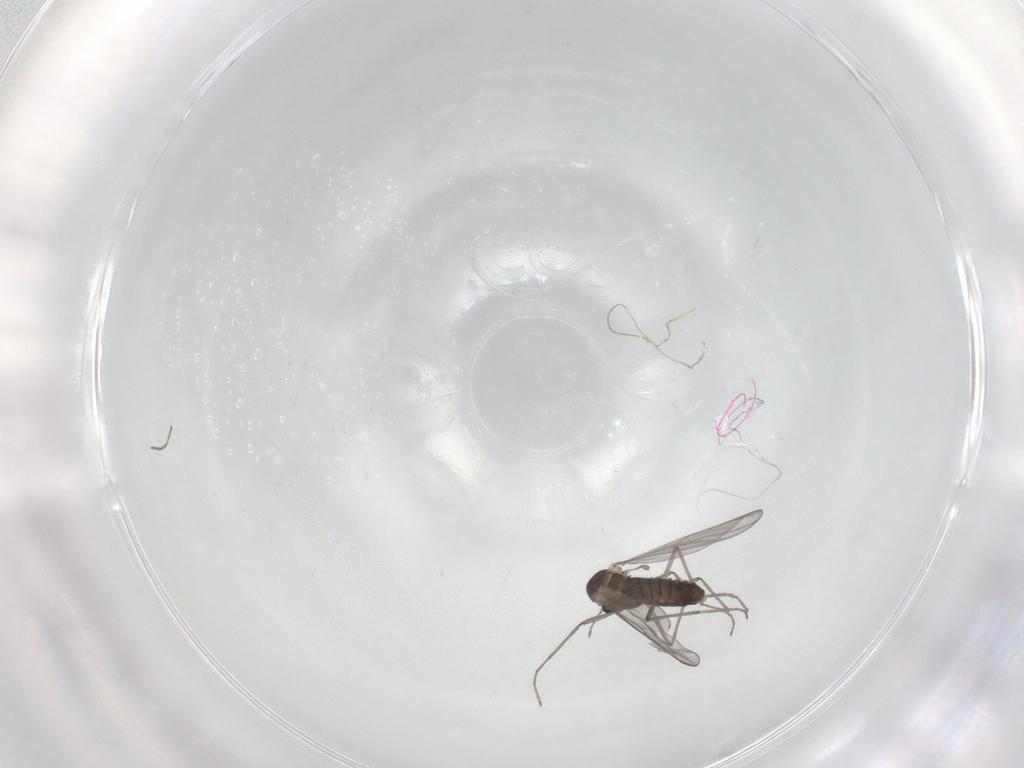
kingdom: Animalia
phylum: Arthropoda
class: Insecta
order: Diptera
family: Chironomidae
